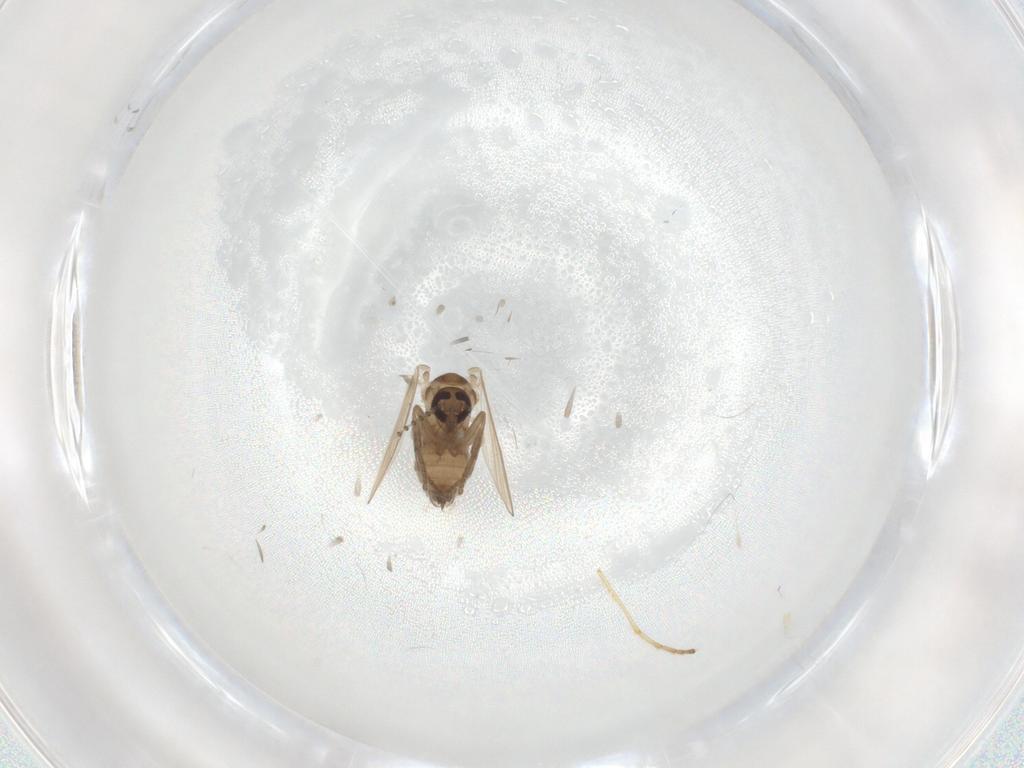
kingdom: Animalia
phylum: Arthropoda
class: Insecta
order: Diptera
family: Psychodidae
